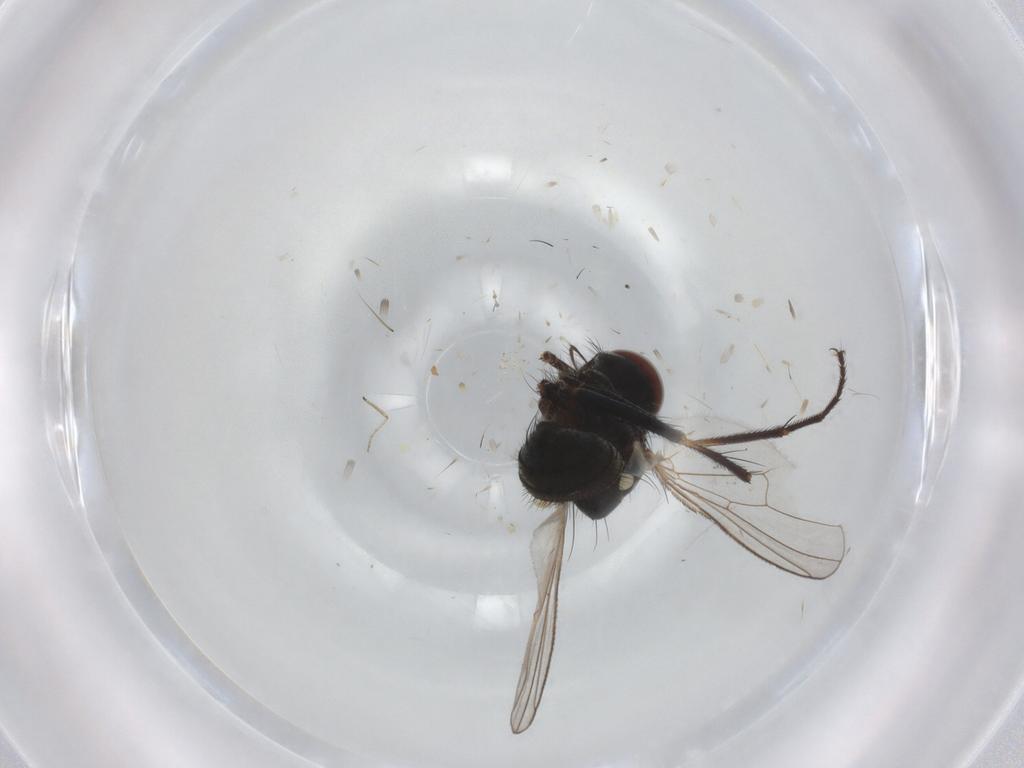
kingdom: Animalia
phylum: Arthropoda
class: Insecta
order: Diptera
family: Muscidae
